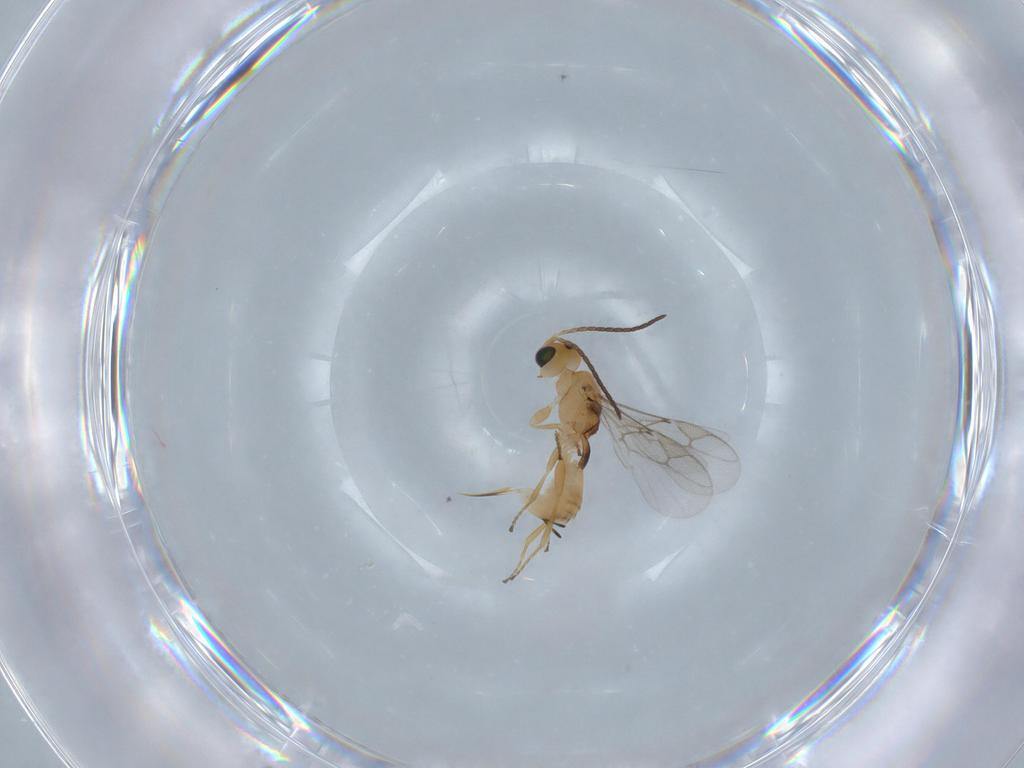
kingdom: Animalia
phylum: Arthropoda
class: Insecta
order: Hymenoptera
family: Braconidae
